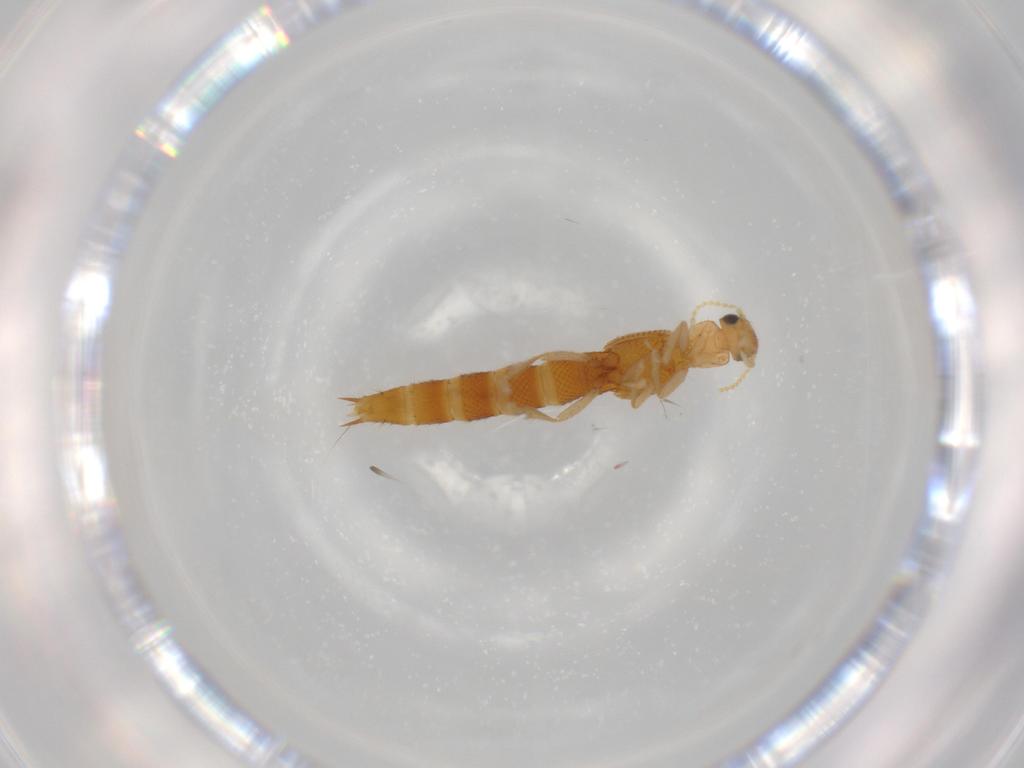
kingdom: Animalia
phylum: Arthropoda
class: Insecta
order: Coleoptera
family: Staphylinidae
